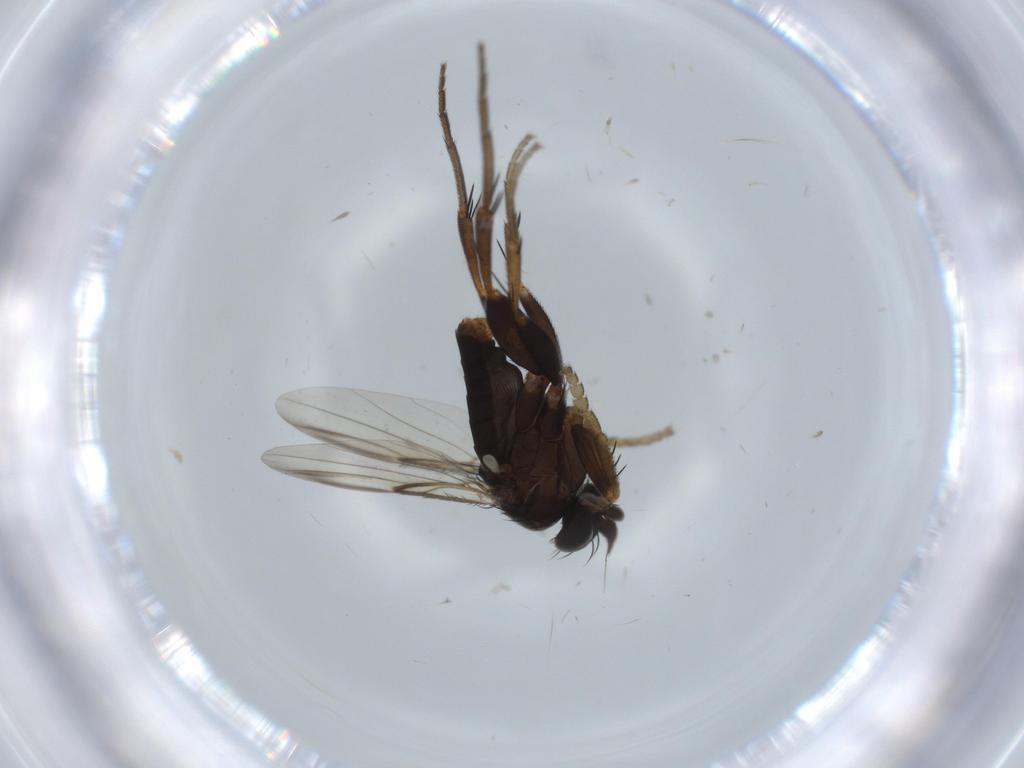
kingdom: Animalia
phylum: Arthropoda
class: Insecta
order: Diptera
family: Phoridae
